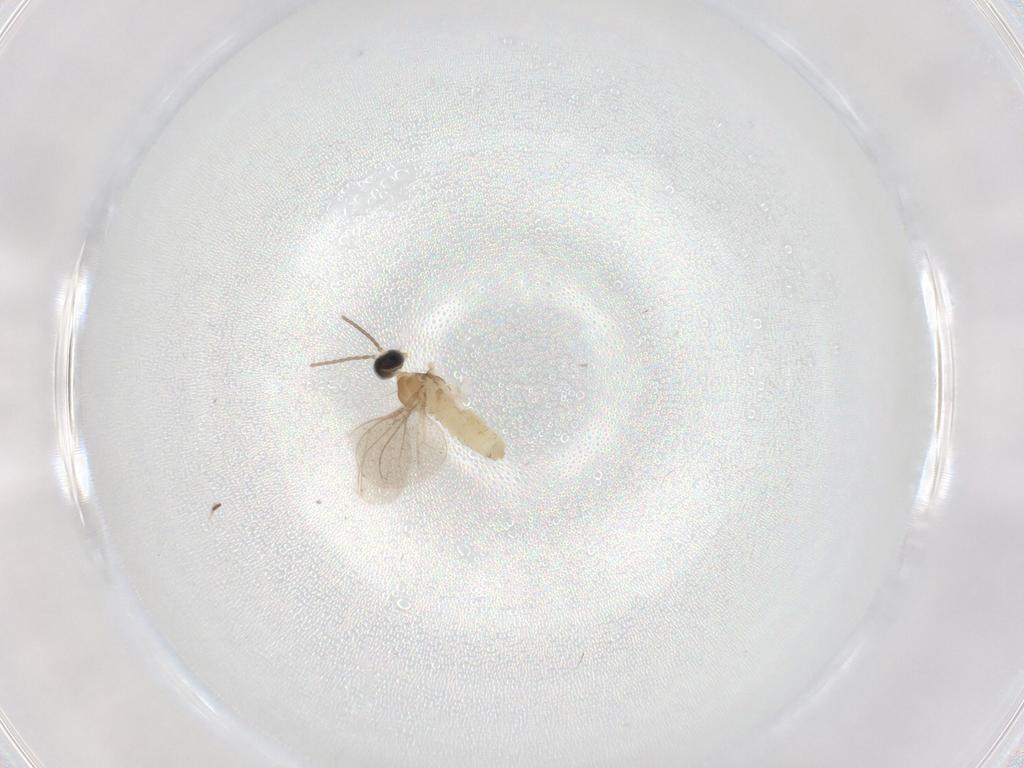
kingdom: Animalia
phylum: Arthropoda
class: Insecta
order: Diptera
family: Cecidomyiidae
